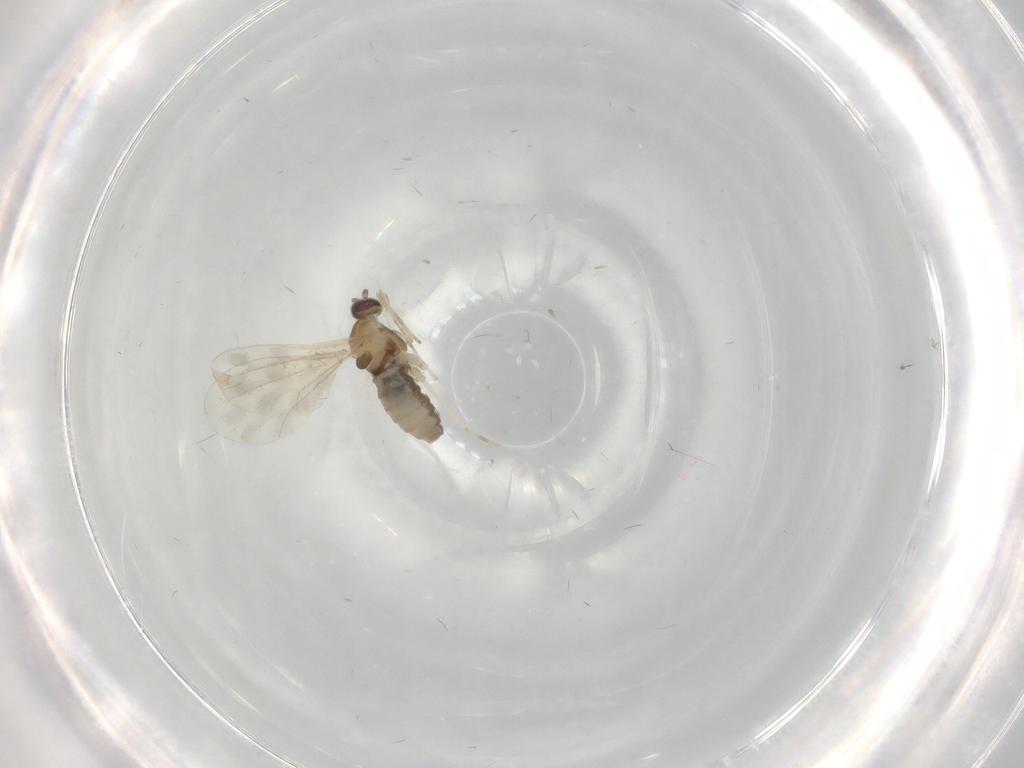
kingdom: Animalia
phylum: Arthropoda
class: Insecta
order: Diptera
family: Cecidomyiidae
